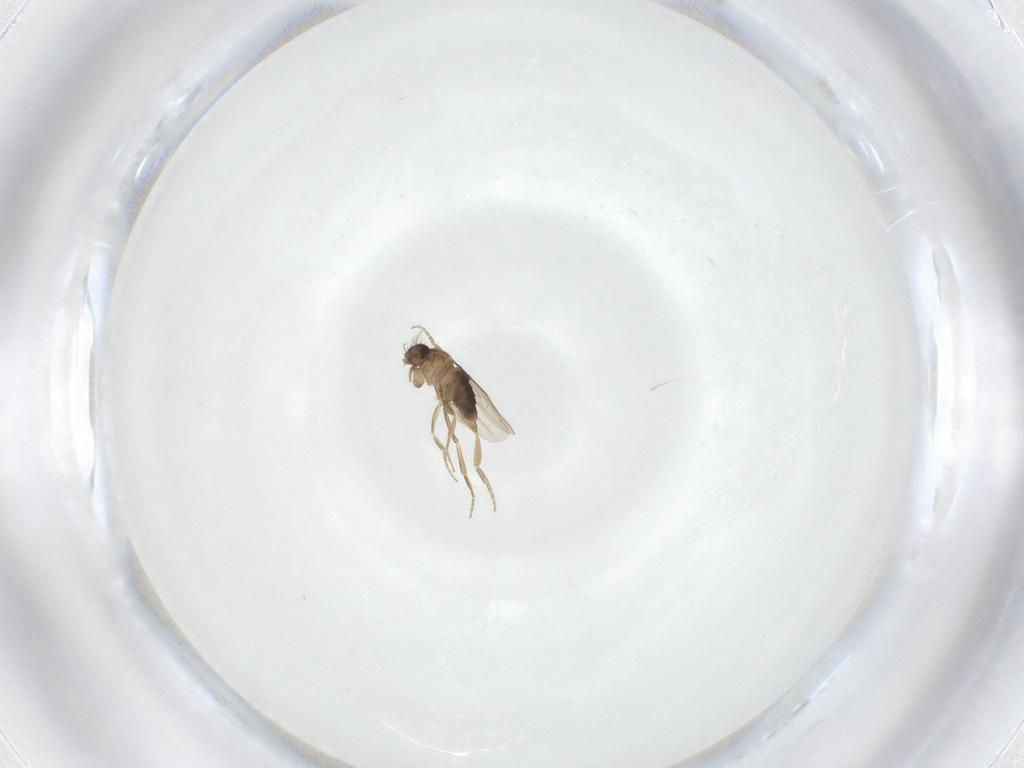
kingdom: Animalia
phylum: Arthropoda
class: Insecta
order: Diptera
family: Phoridae
